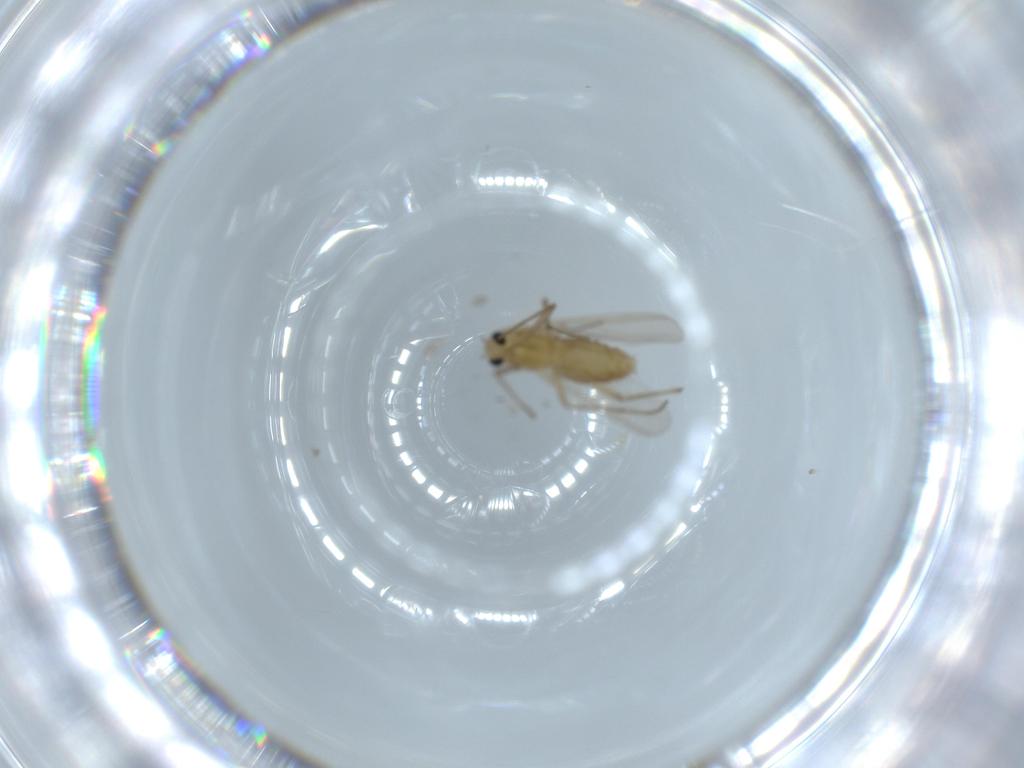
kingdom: Animalia
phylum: Arthropoda
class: Insecta
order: Diptera
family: Chironomidae
